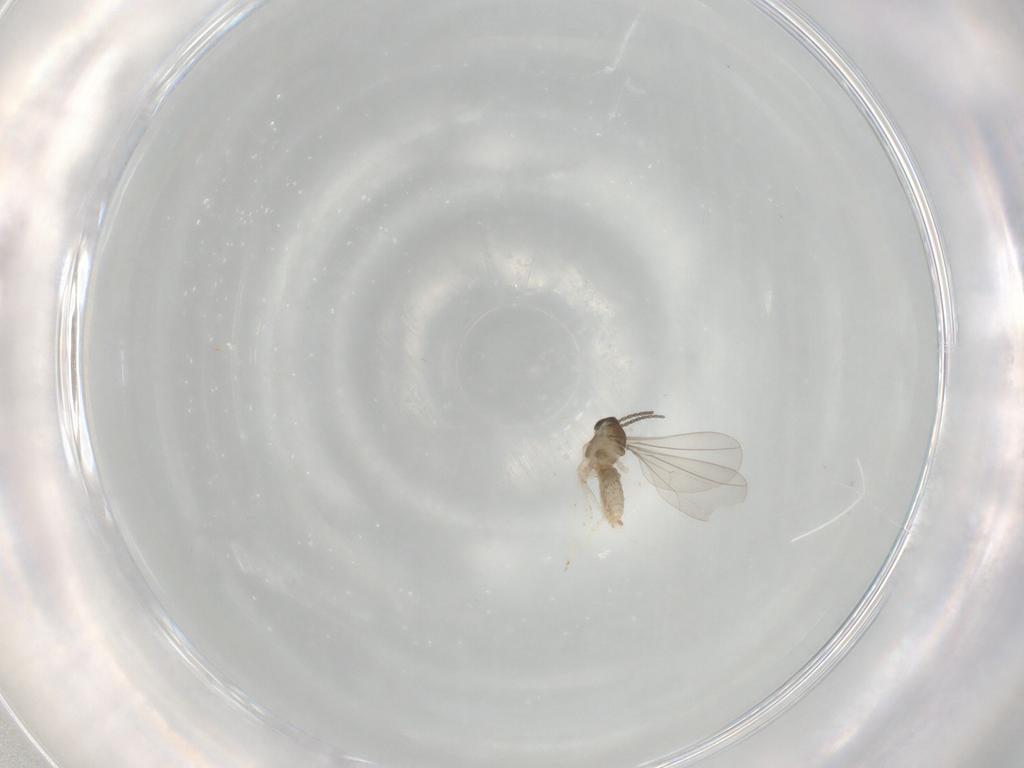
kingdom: Animalia
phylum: Arthropoda
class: Insecta
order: Diptera
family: Cecidomyiidae
